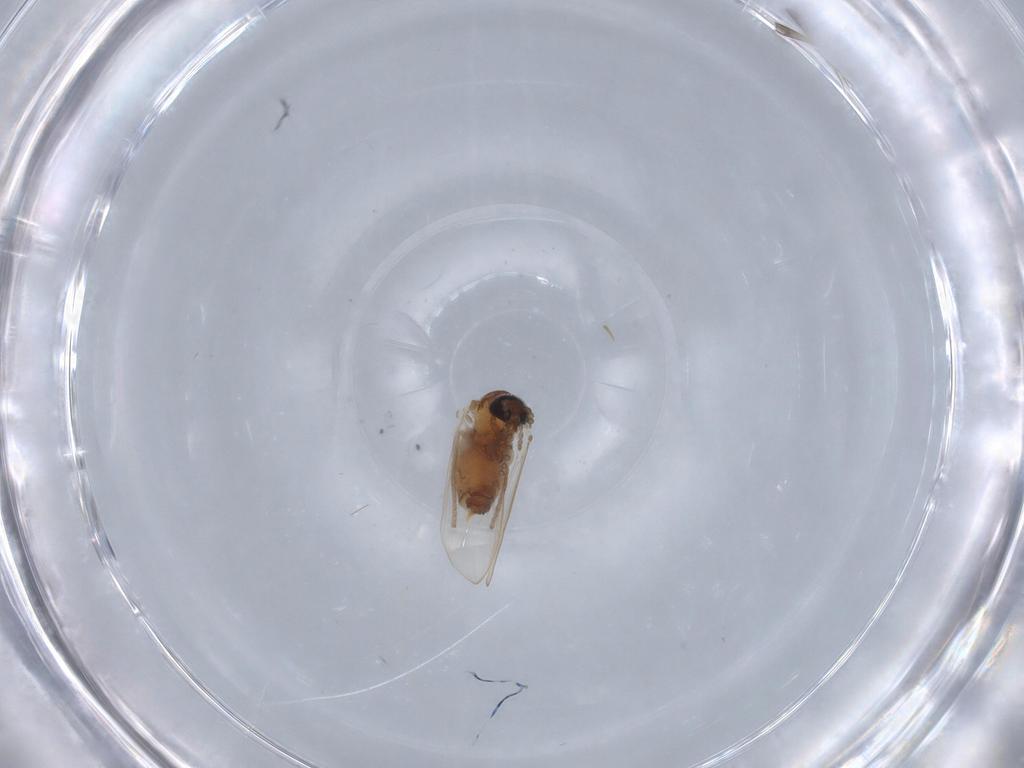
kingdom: Animalia
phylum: Arthropoda
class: Insecta
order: Diptera
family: Cecidomyiidae
